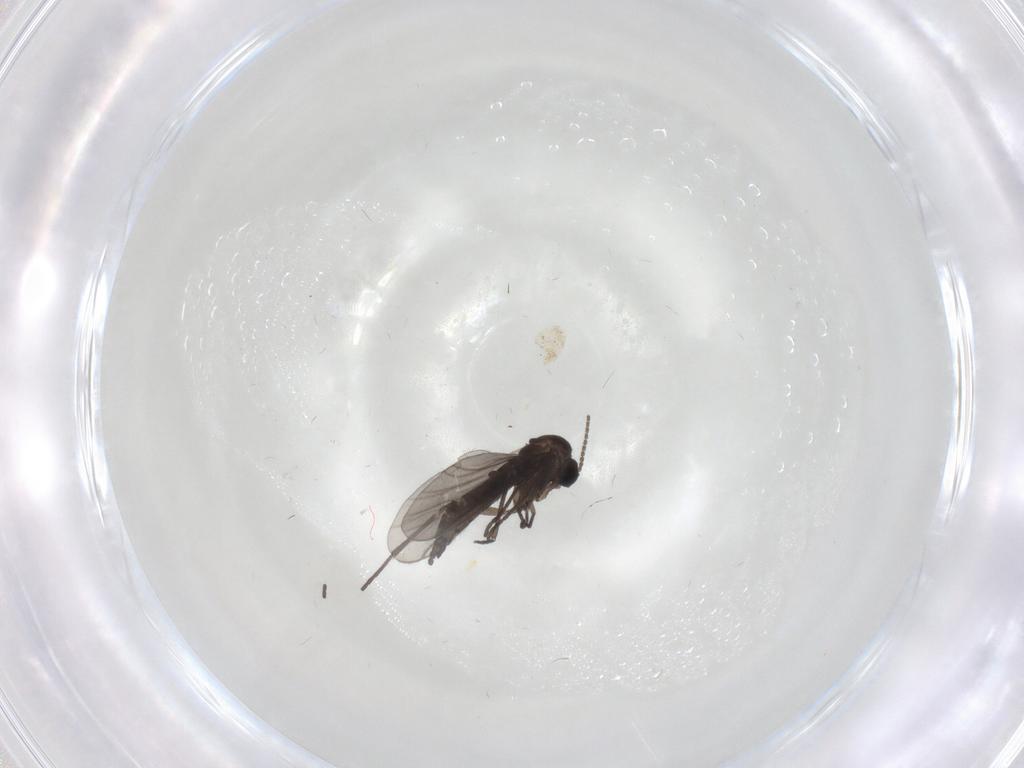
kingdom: Animalia
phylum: Arthropoda
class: Insecta
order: Diptera
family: Sciaridae
